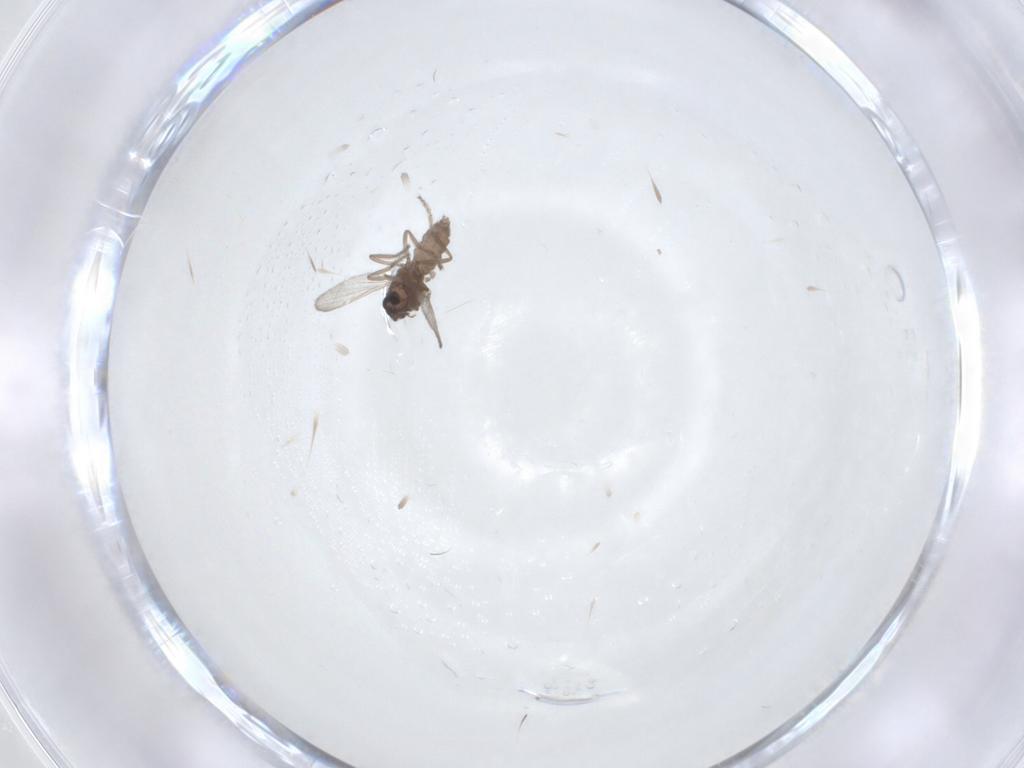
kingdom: Animalia
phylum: Arthropoda
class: Insecta
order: Diptera
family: Ceratopogonidae
